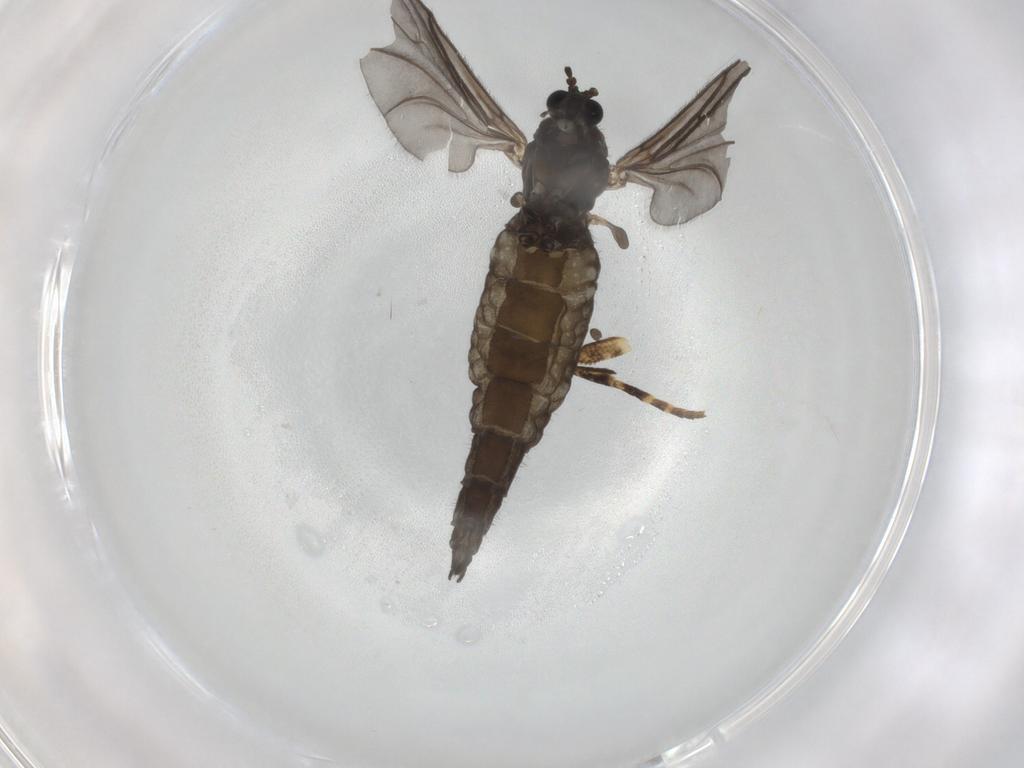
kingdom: Animalia
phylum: Arthropoda
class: Insecta
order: Diptera
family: Sciaridae
